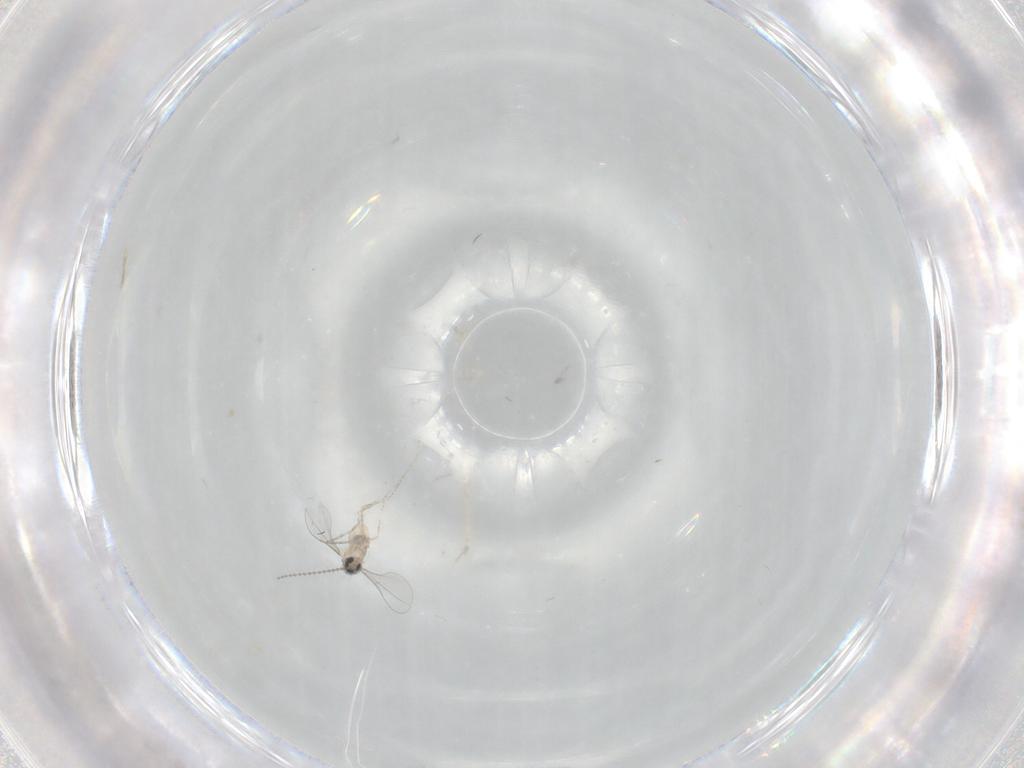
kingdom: Animalia
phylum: Arthropoda
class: Insecta
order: Diptera
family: Cecidomyiidae
